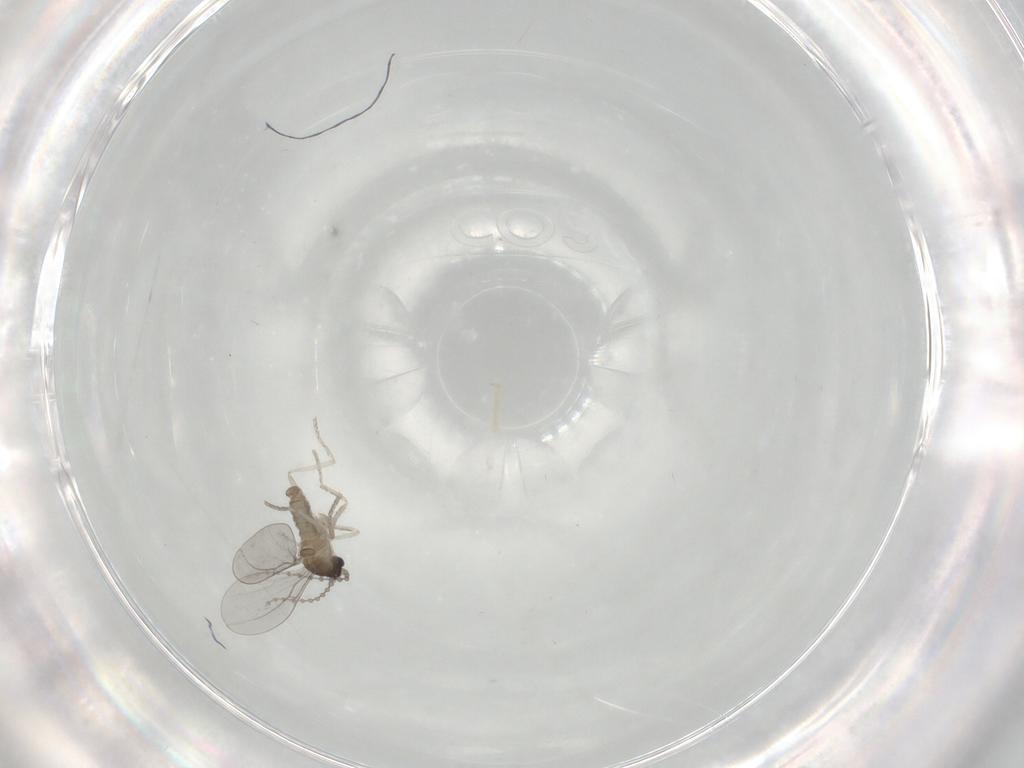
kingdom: Animalia
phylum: Arthropoda
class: Insecta
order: Diptera
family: Cecidomyiidae
